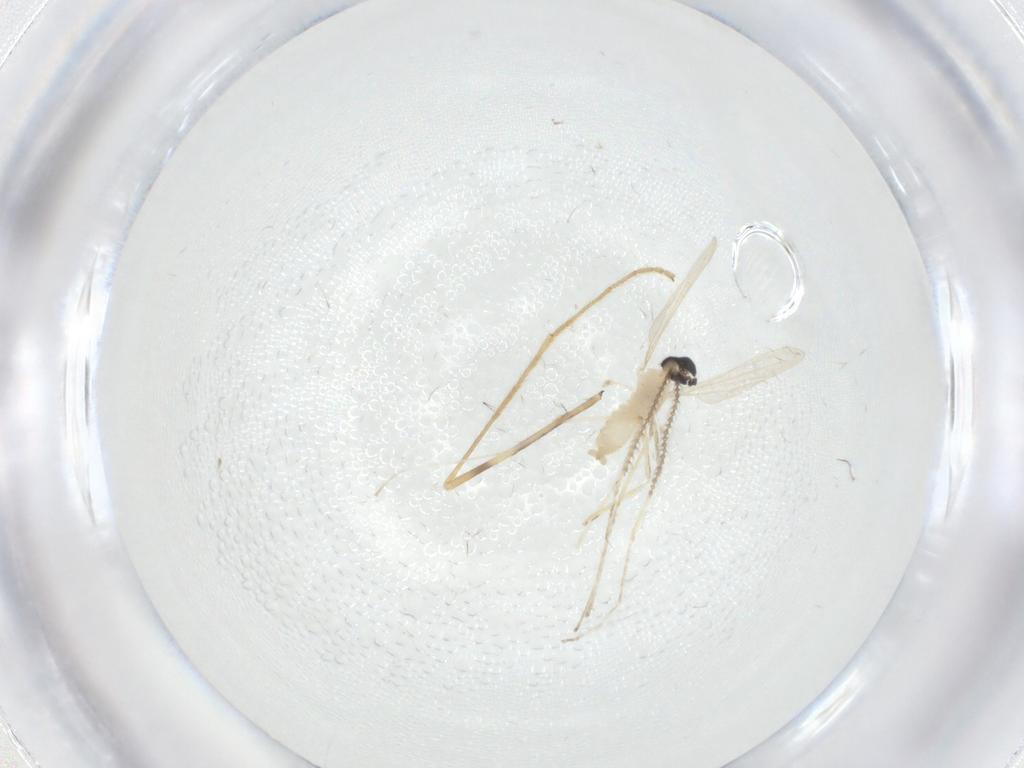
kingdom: Animalia
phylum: Arthropoda
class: Insecta
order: Diptera
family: Cecidomyiidae
